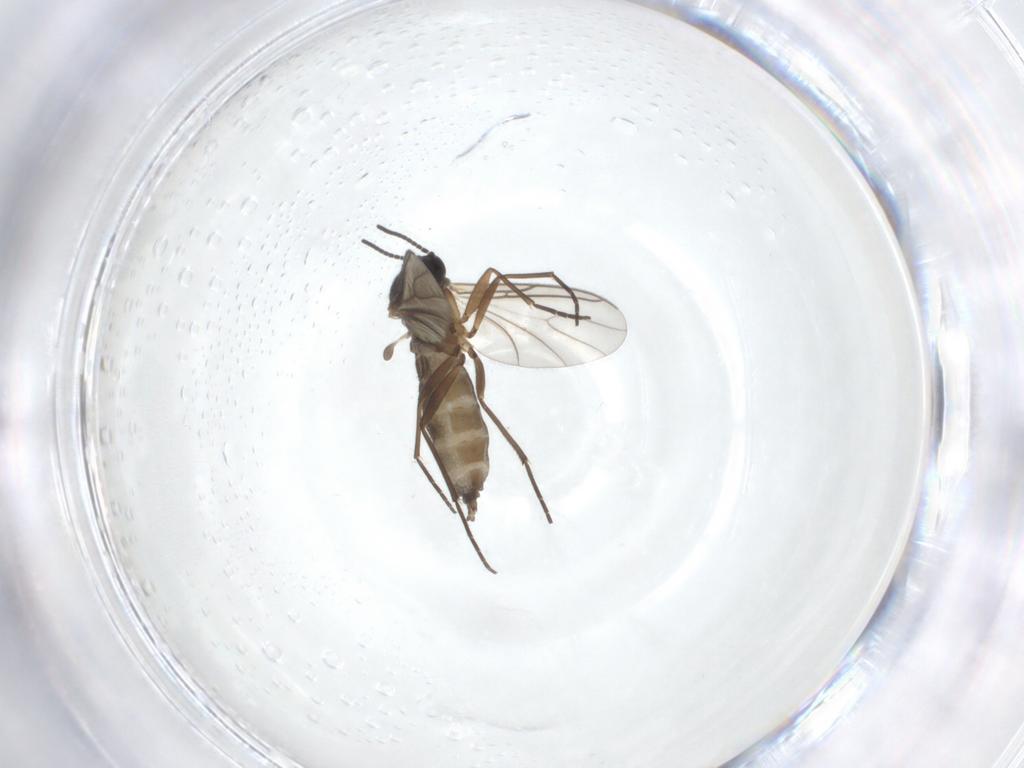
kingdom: Animalia
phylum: Arthropoda
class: Insecta
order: Diptera
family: Sciaridae
